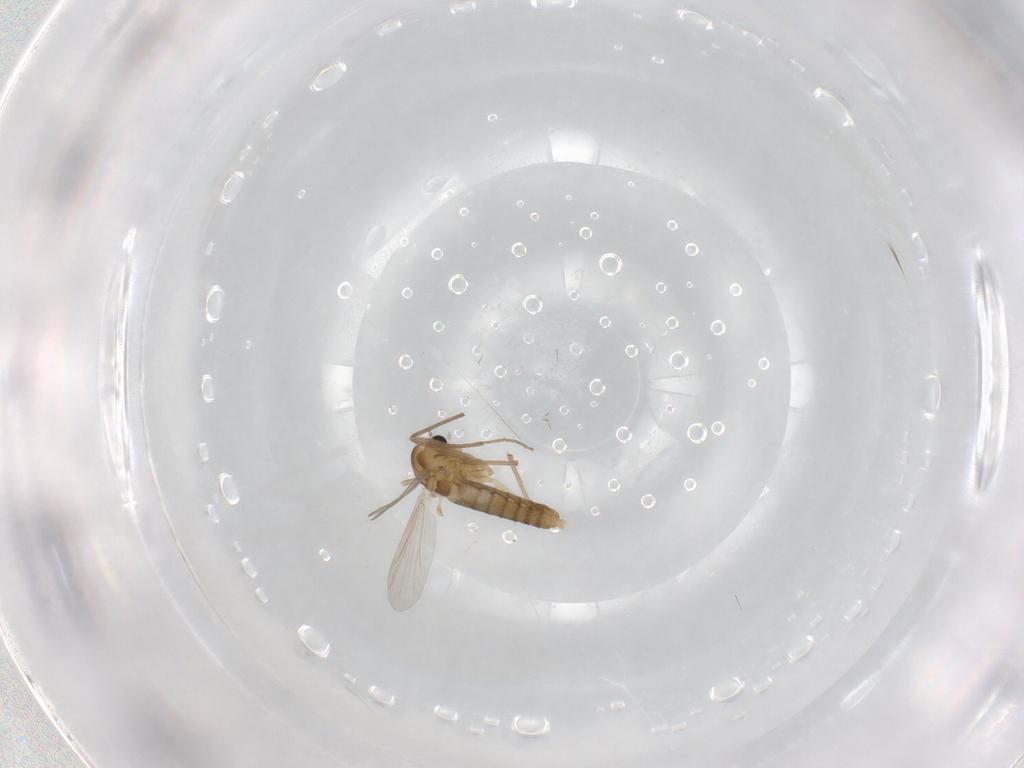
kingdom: Animalia
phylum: Arthropoda
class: Insecta
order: Diptera
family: Chironomidae
